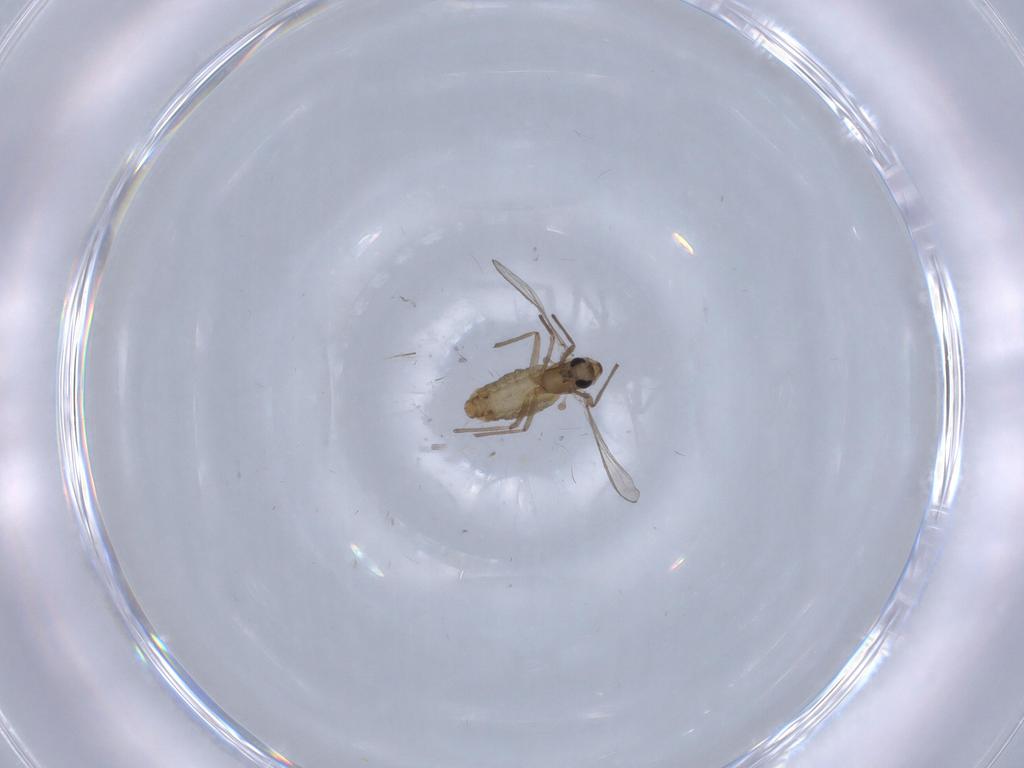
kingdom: Animalia
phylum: Arthropoda
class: Insecta
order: Diptera
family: Chironomidae
